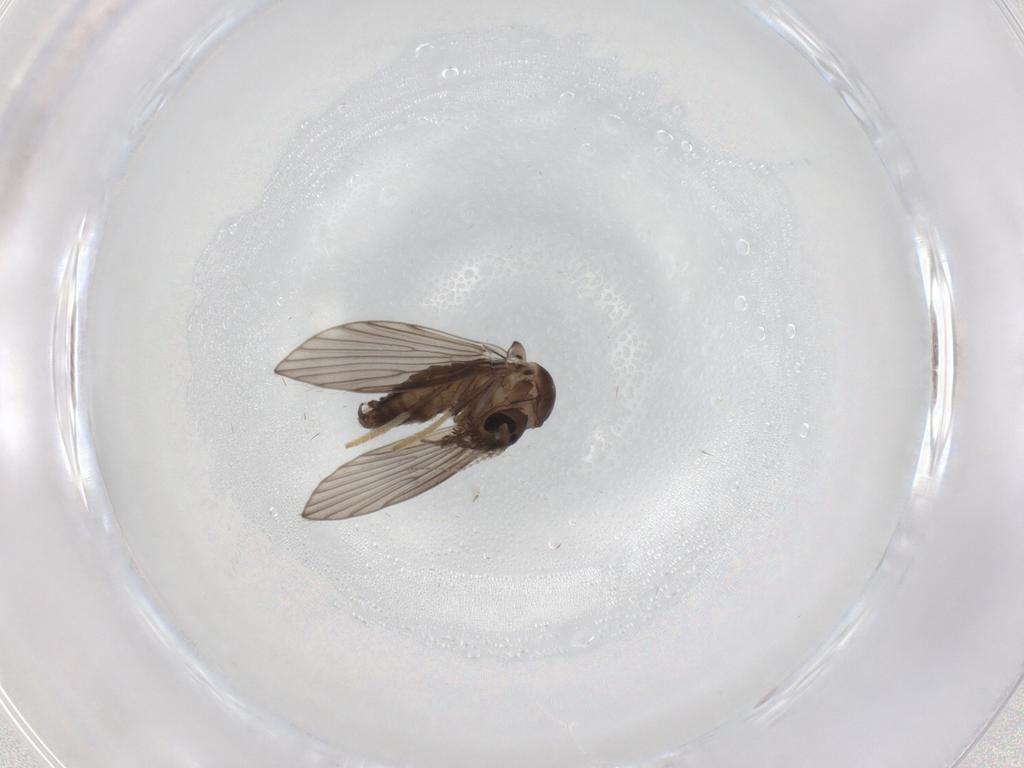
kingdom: Animalia
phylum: Arthropoda
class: Insecta
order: Diptera
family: Psychodidae
